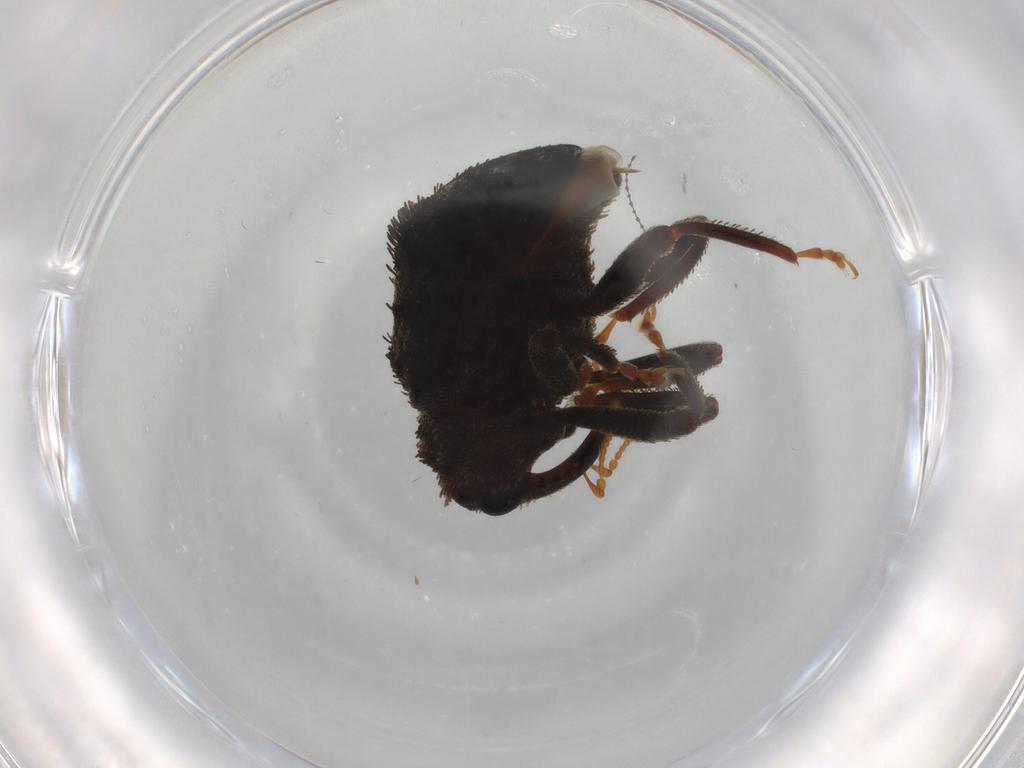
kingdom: Animalia
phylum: Arthropoda
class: Insecta
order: Coleoptera
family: Curculionidae
